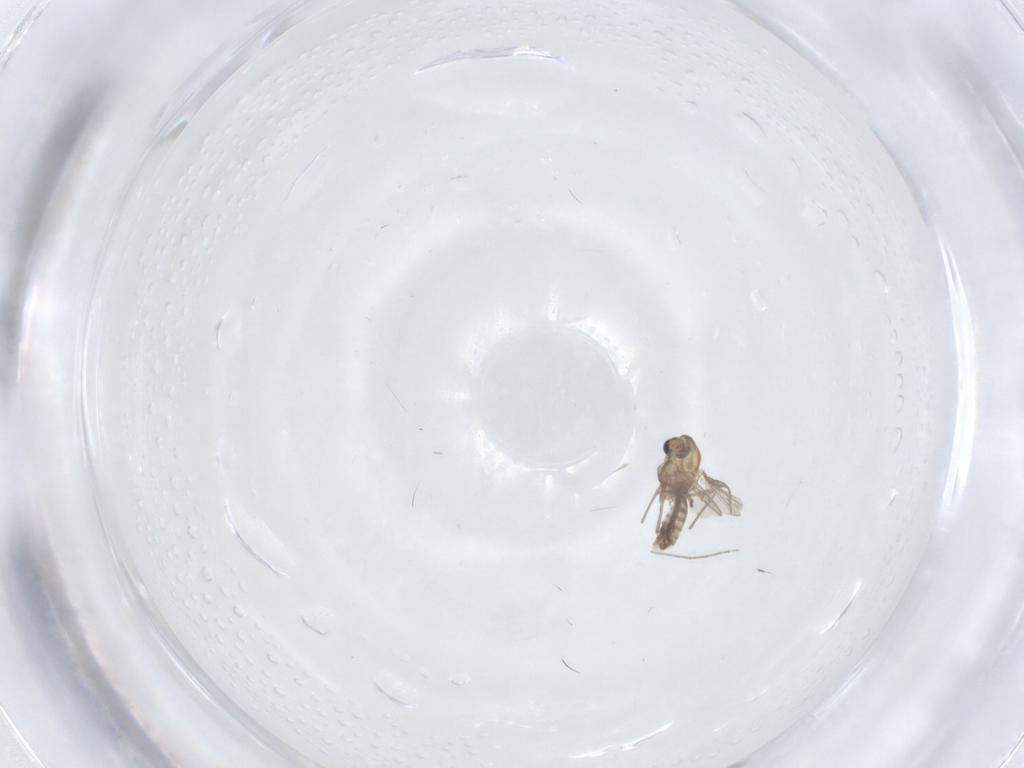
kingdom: Animalia
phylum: Arthropoda
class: Insecta
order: Diptera
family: Chironomidae
